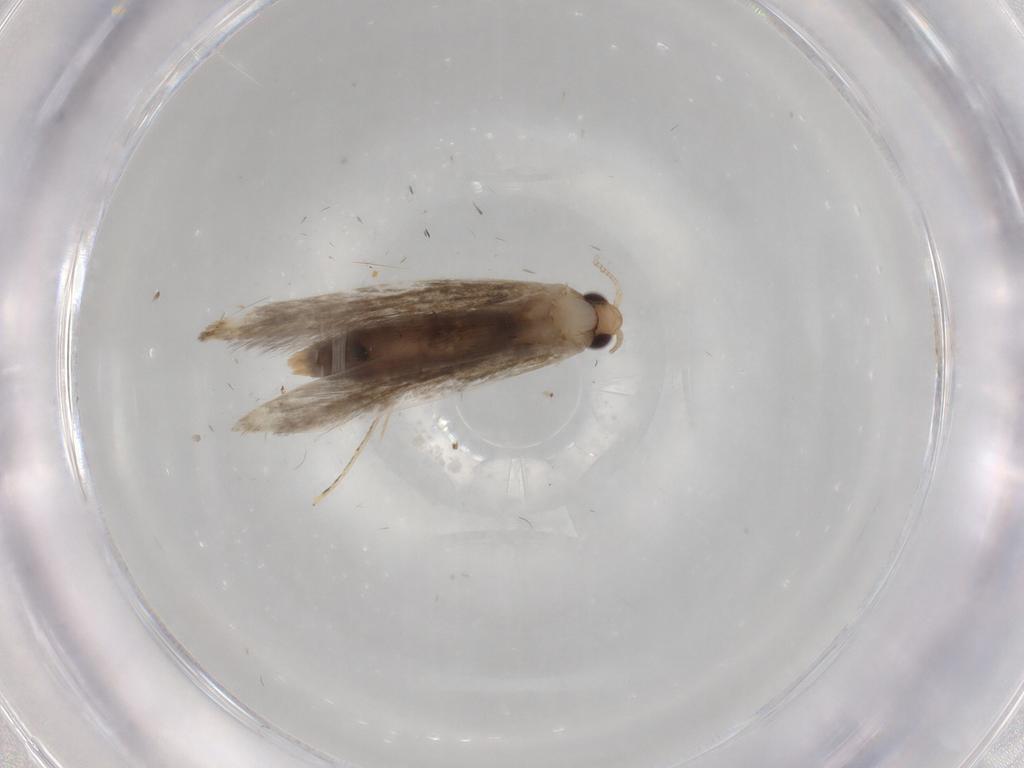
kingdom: Animalia
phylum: Arthropoda
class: Insecta
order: Lepidoptera
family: Tineidae
